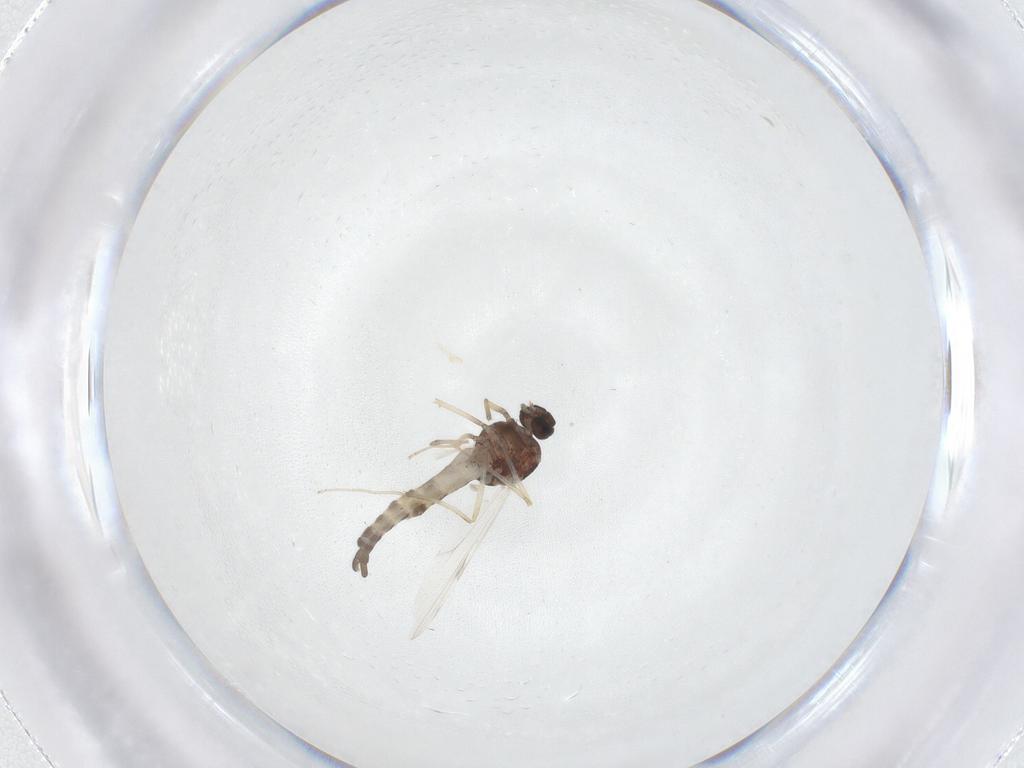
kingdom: Animalia
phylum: Arthropoda
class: Insecta
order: Diptera
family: Ceratopogonidae
